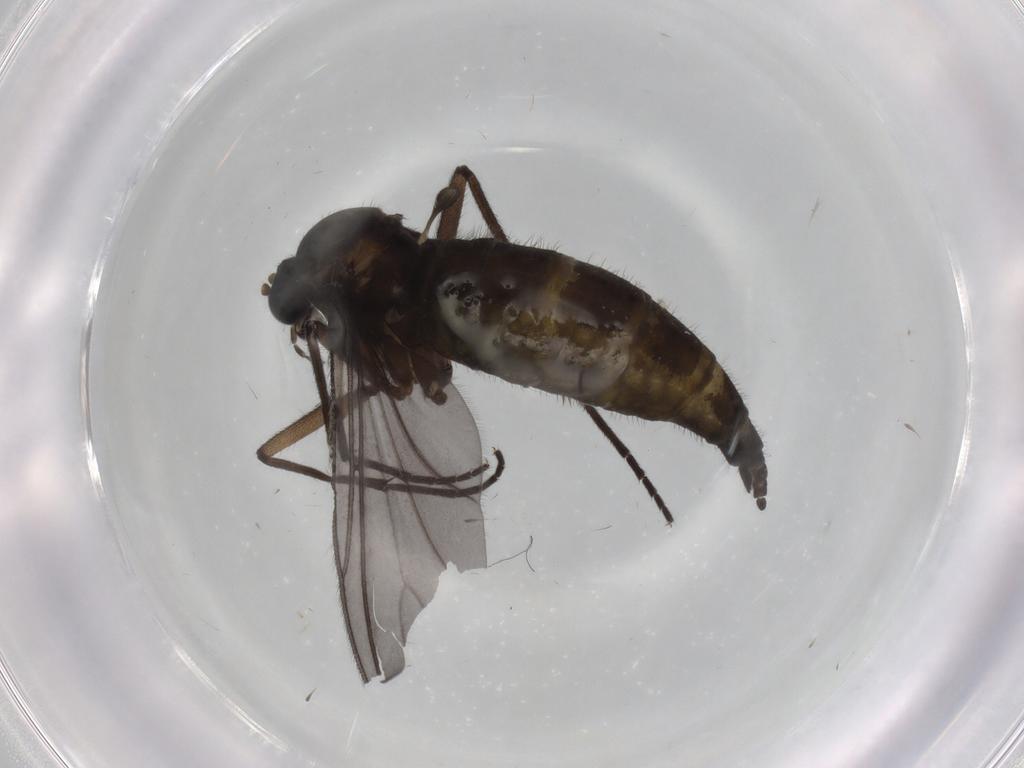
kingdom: Animalia
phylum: Arthropoda
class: Insecta
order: Diptera
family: Sciaridae
